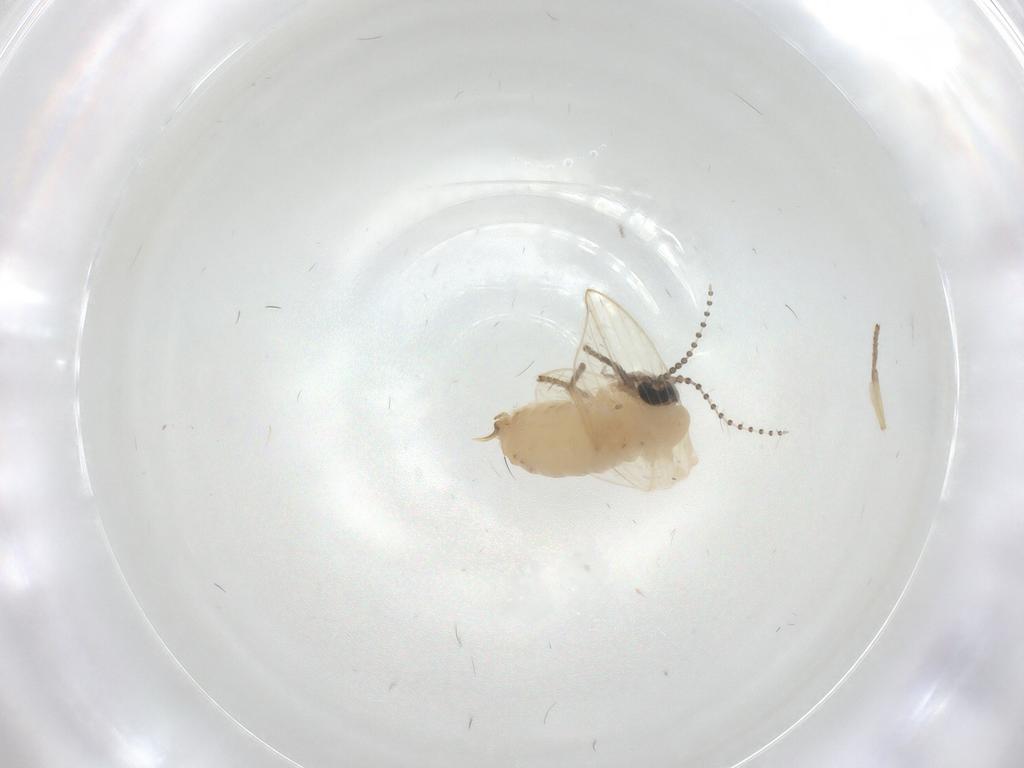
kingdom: Animalia
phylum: Arthropoda
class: Insecta
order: Diptera
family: Psychodidae
